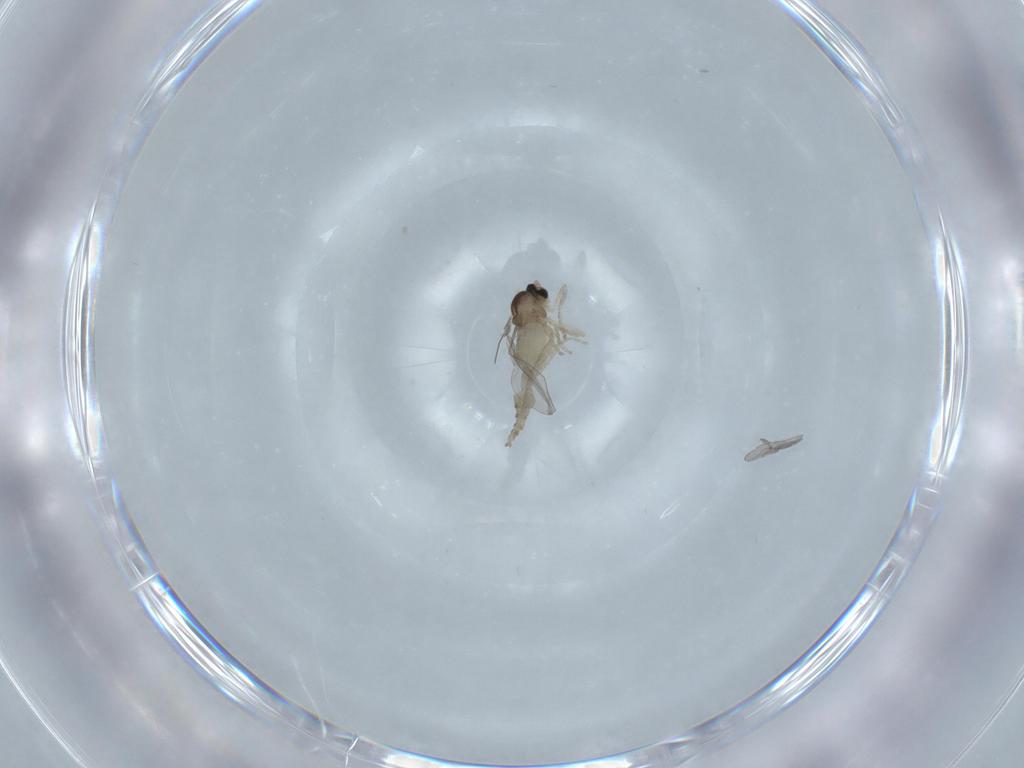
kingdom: Animalia
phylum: Arthropoda
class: Insecta
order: Diptera
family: Cecidomyiidae
